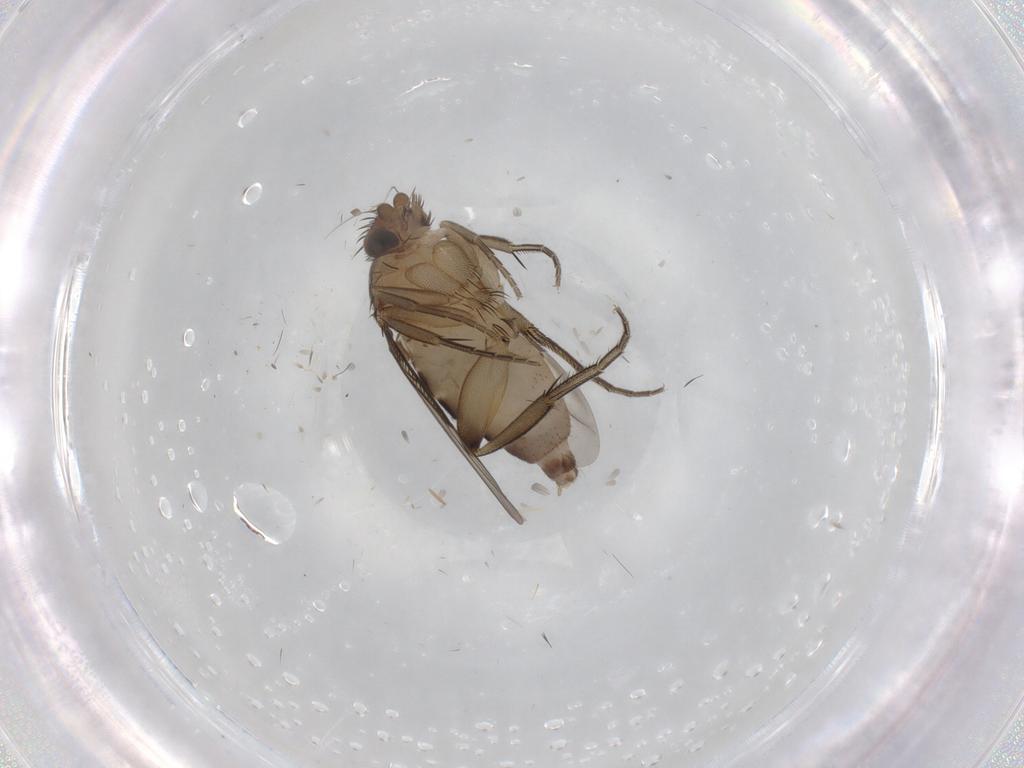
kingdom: Animalia
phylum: Arthropoda
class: Insecta
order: Diptera
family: Phoridae
